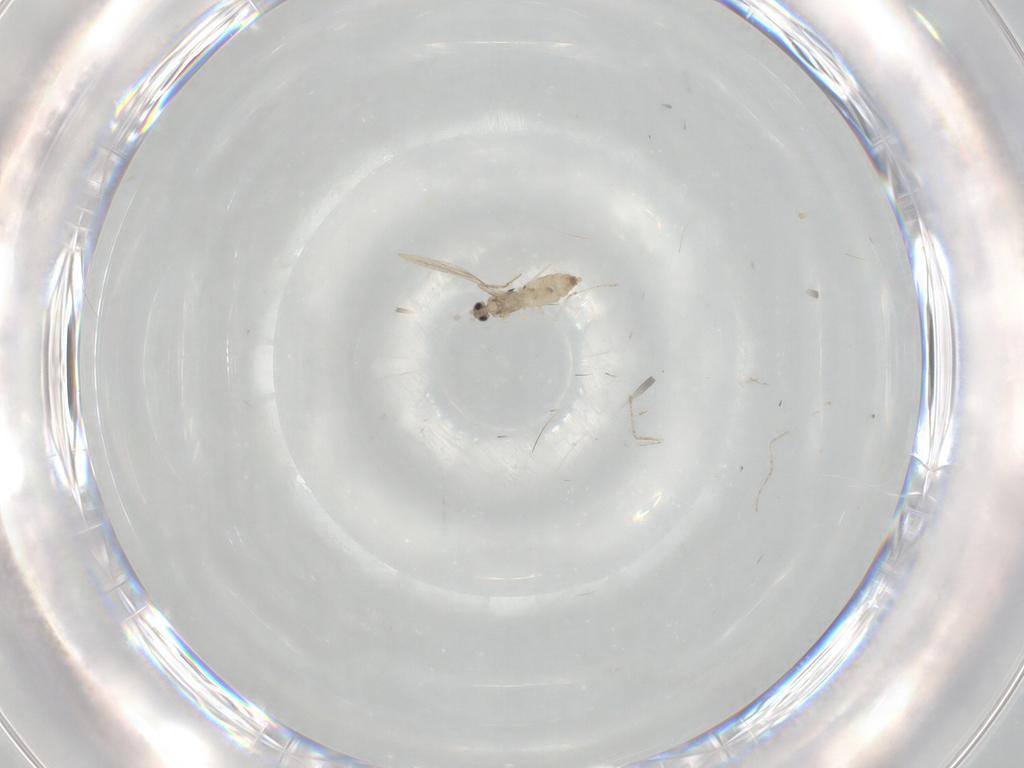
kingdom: Animalia
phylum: Arthropoda
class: Insecta
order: Diptera
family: Cecidomyiidae
